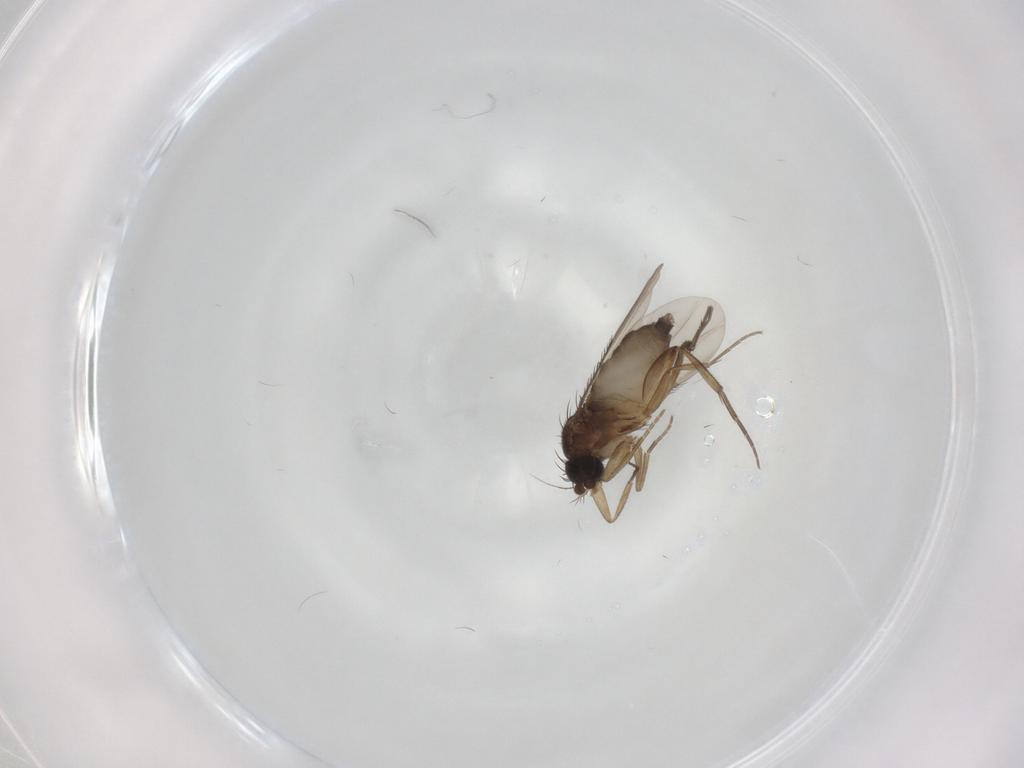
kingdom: Animalia
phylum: Arthropoda
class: Insecta
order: Diptera
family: Phoridae
